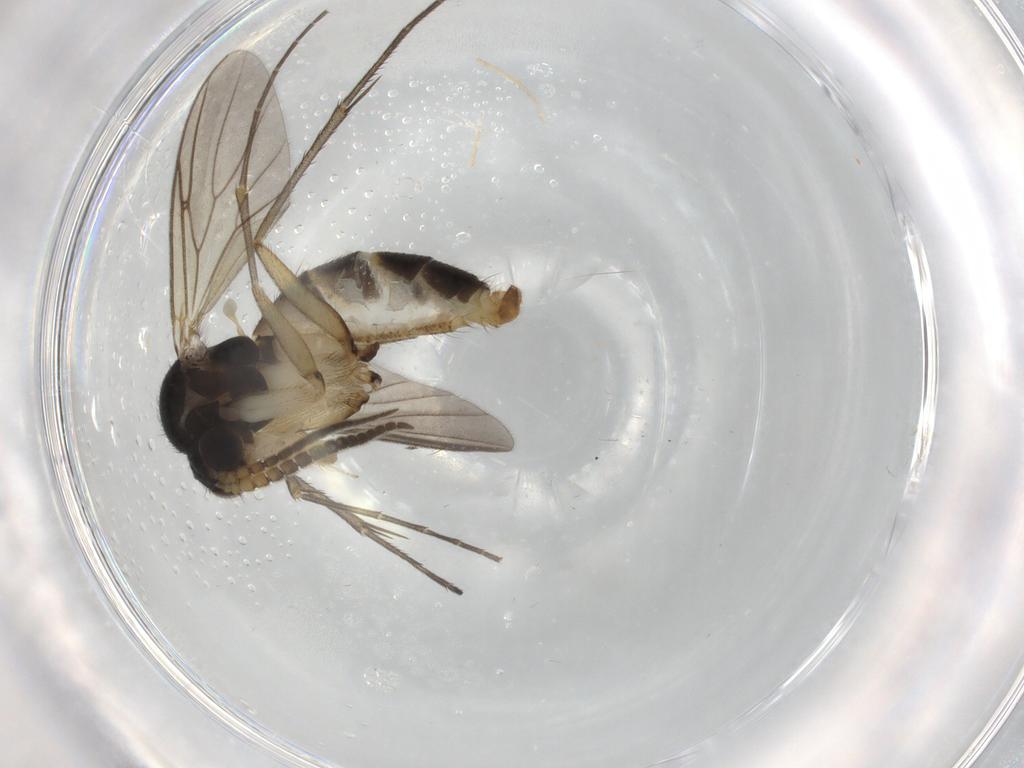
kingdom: Animalia
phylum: Arthropoda
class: Insecta
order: Diptera
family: Mycetophilidae
